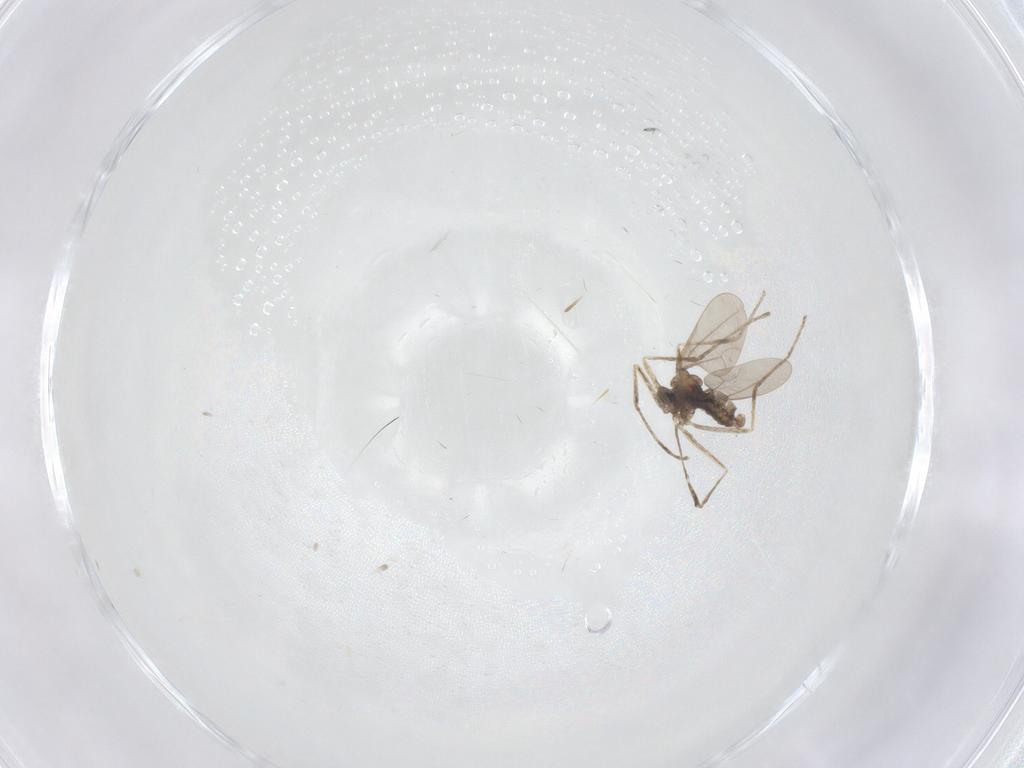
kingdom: Animalia
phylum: Arthropoda
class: Insecta
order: Diptera
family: Cecidomyiidae
